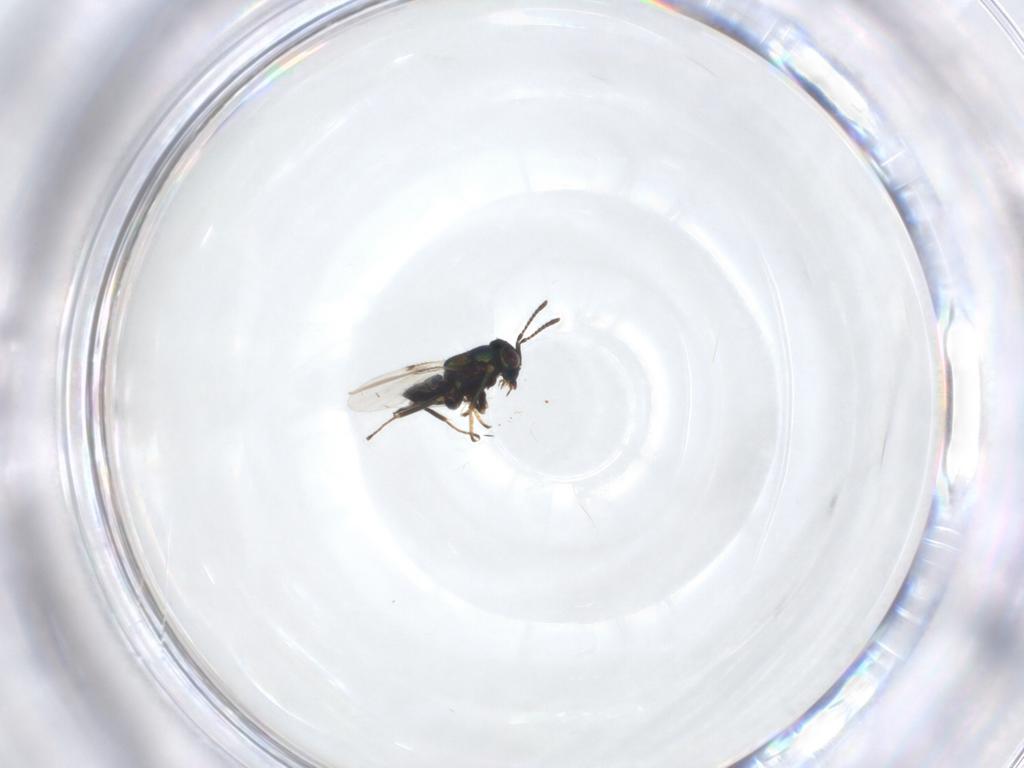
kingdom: Animalia
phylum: Arthropoda
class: Insecta
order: Hymenoptera
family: Encyrtidae
